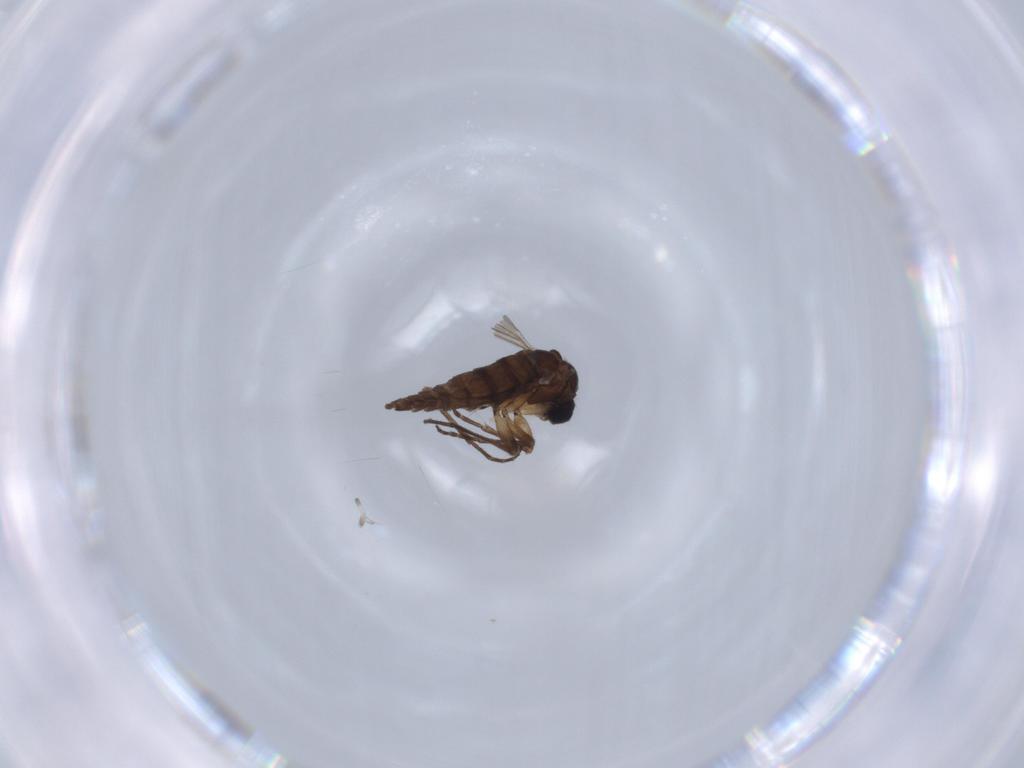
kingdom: Animalia
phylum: Arthropoda
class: Insecta
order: Diptera
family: Sciaridae
